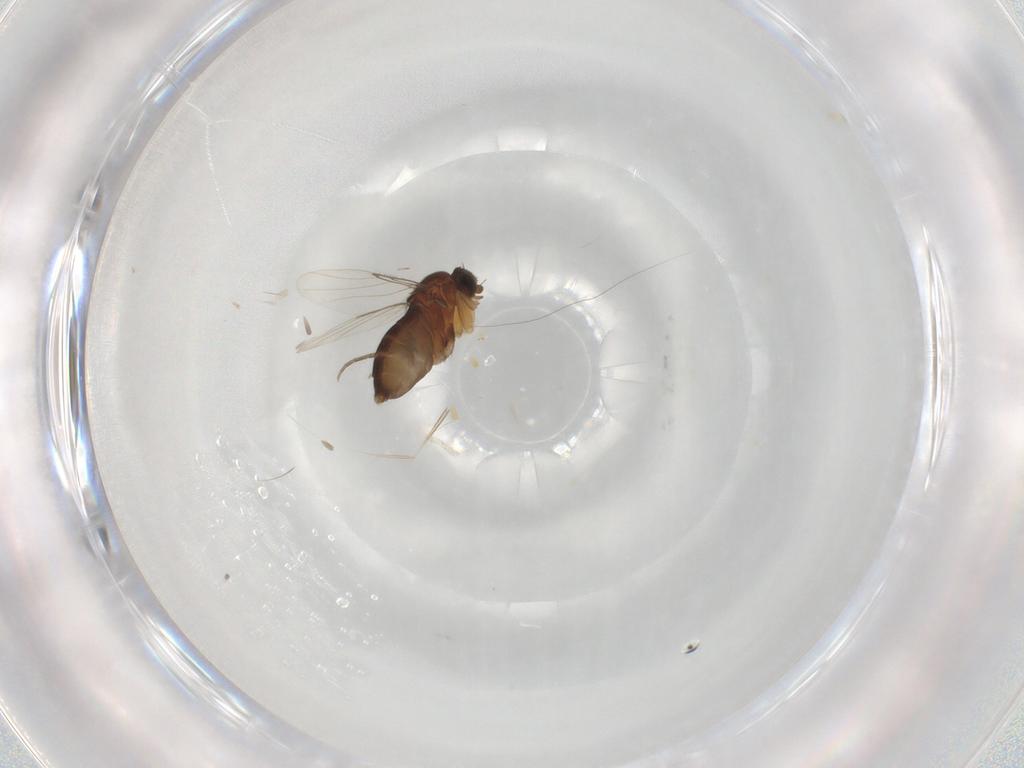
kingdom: Animalia
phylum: Arthropoda
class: Insecta
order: Diptera
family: Phoridae
